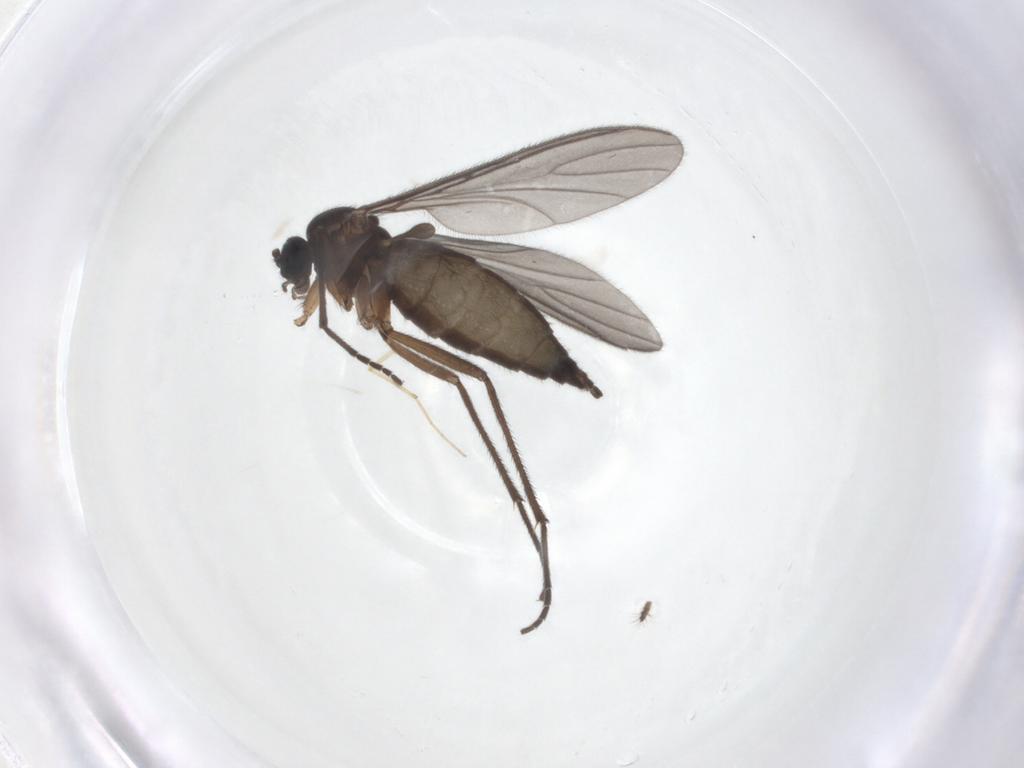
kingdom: Animalia
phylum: Arthropoda
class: Insecta
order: Diptera
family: Sciaridae
